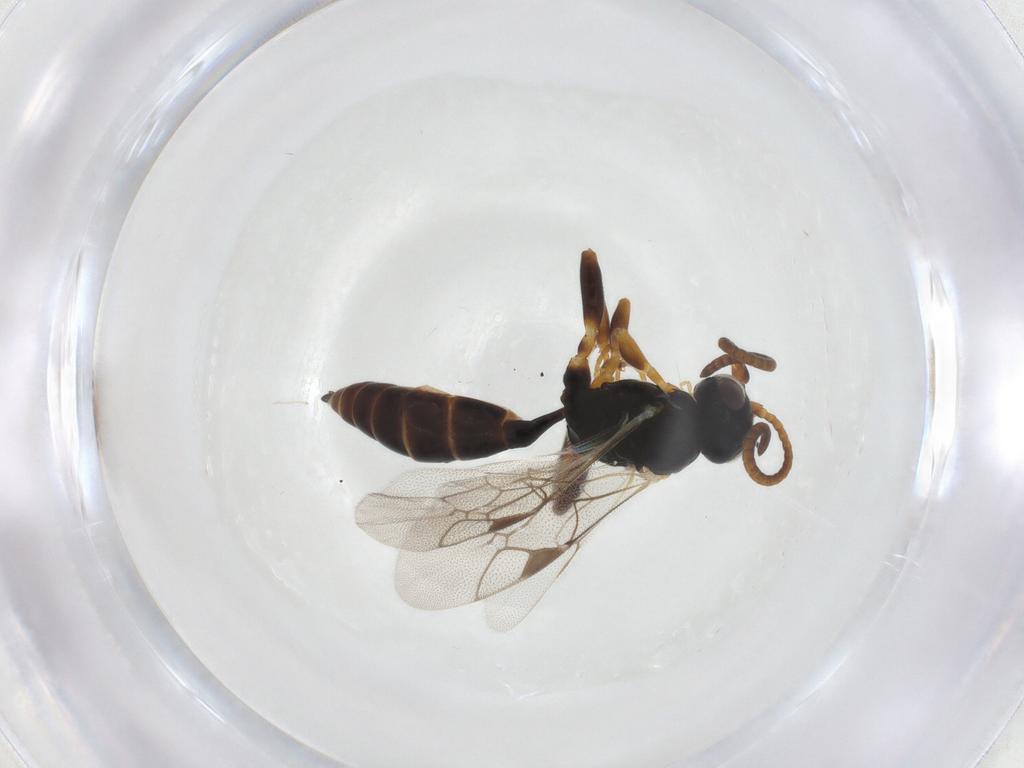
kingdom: Animalia
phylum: Arthropoda
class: Insecta
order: Hymenoptera
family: Ichneumonidae
